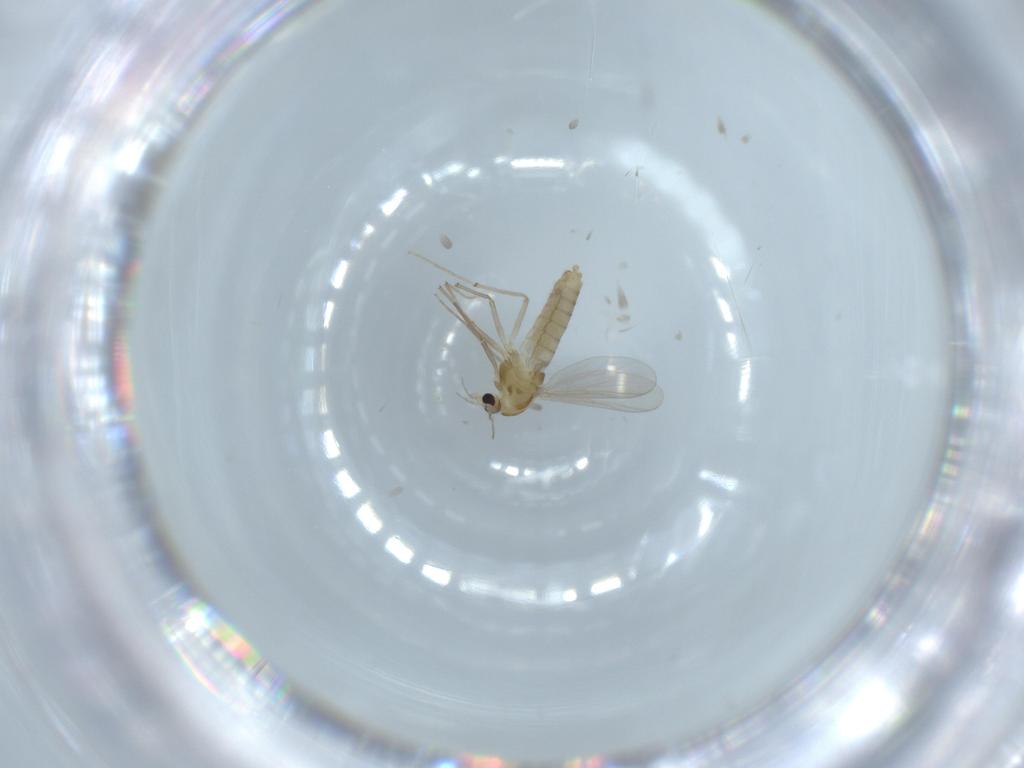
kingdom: Animalia
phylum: Arthropoda
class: Insecta
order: Diptera
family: Chironomidae
